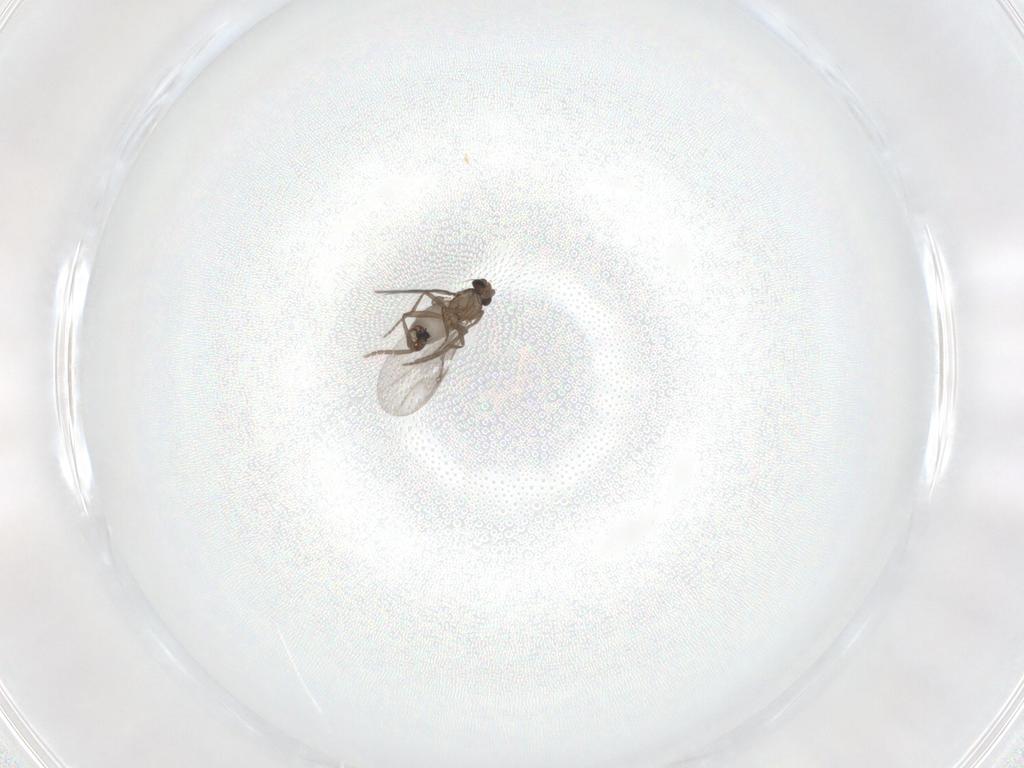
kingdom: Animalia
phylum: Arthropoda
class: Insecta
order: Diptera
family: Phoridae
